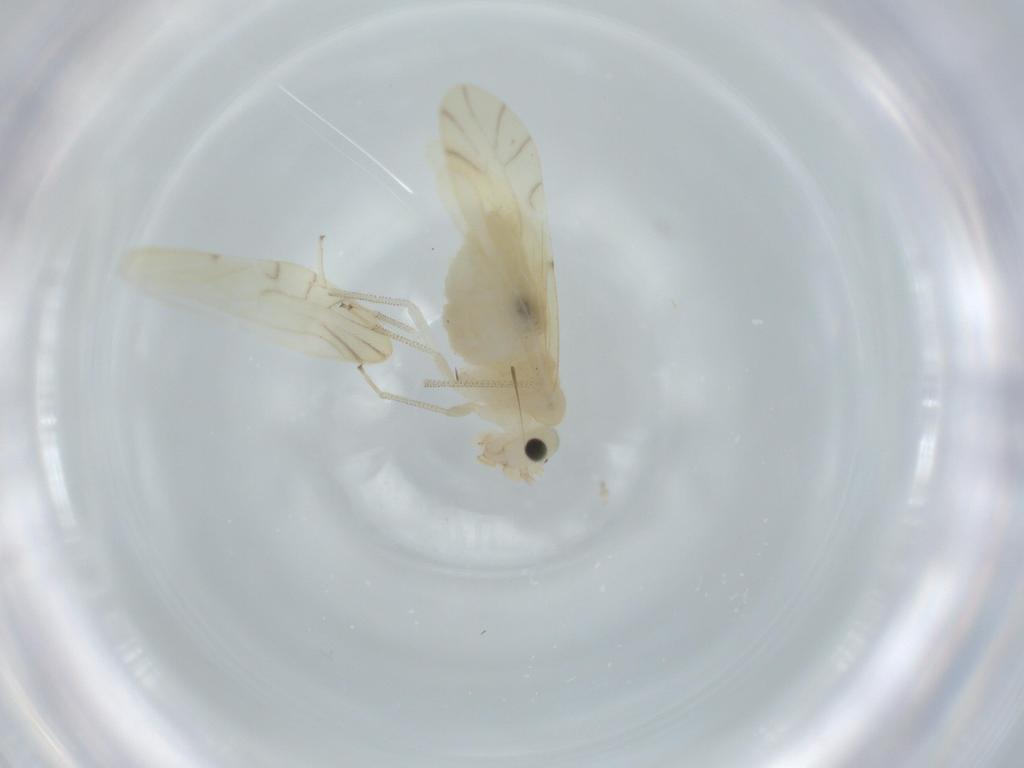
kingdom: Animalia
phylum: Arthropoda
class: Insecta
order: Psocodea
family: Caeciliusidae
